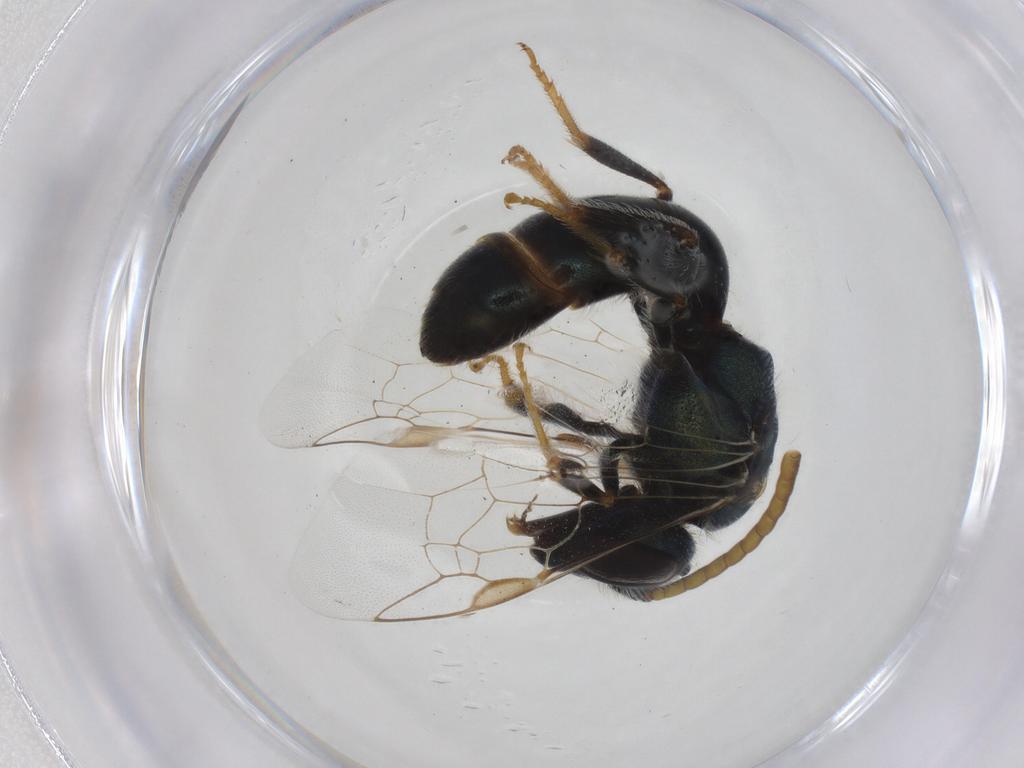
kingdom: Animalia
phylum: Arthropoda
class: Insecta
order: Hymenoptera
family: Halictidae
